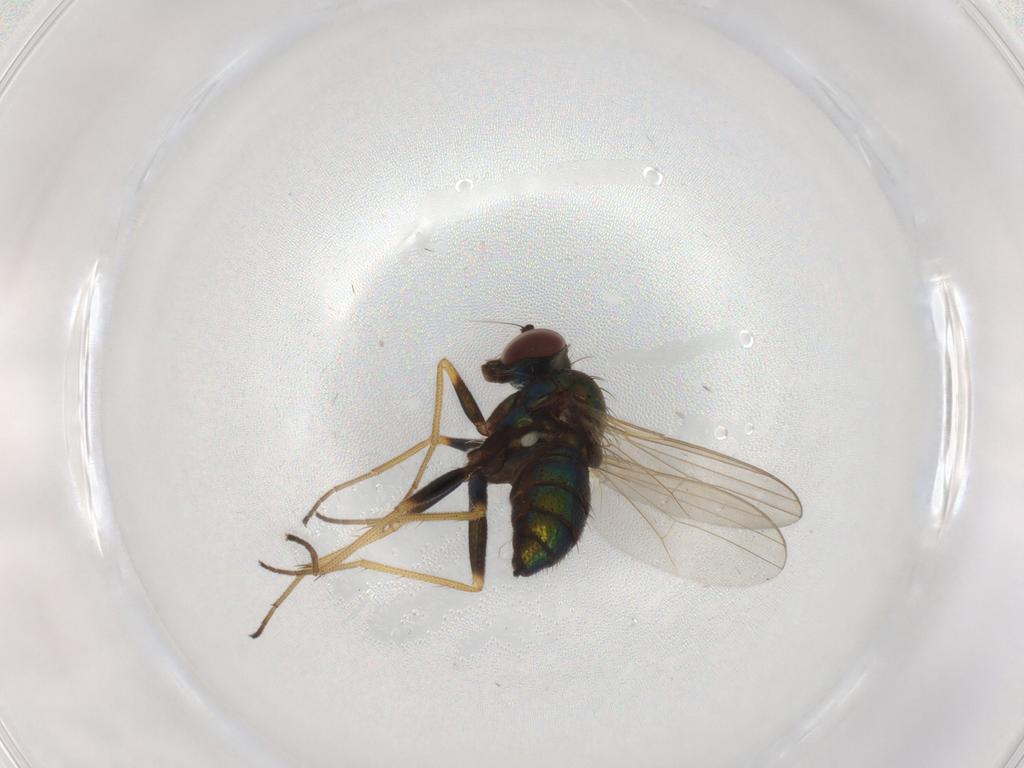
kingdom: Animalia
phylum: Arthropoda
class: Insecta
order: Diptera
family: Dolichopodidae
